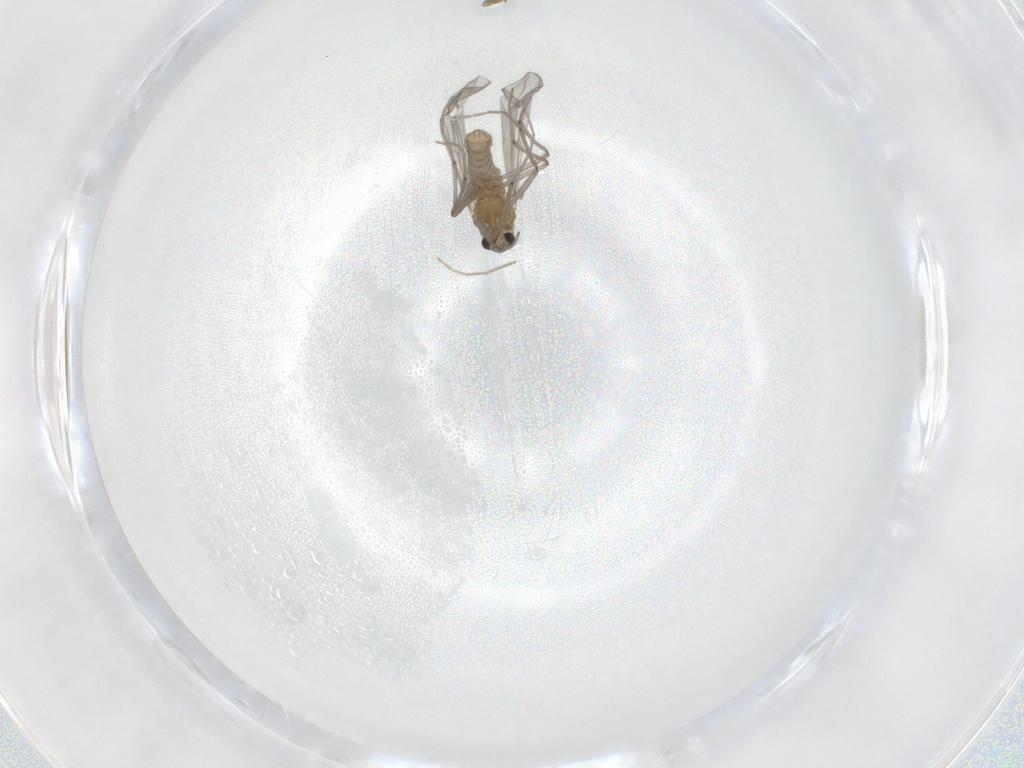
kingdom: Animalia
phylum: Arthropoda
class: Insecta
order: Diptera
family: Chironomidae
